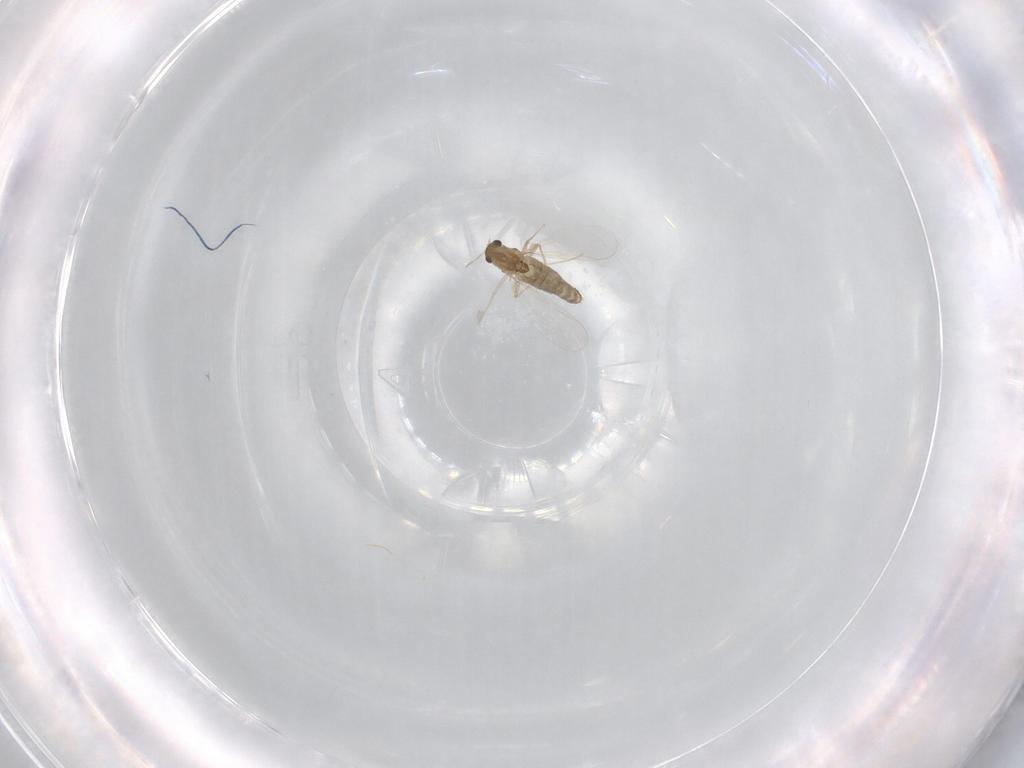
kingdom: Animalia
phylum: Arthropoda
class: Insecta
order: Diptera
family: Chironomidae
